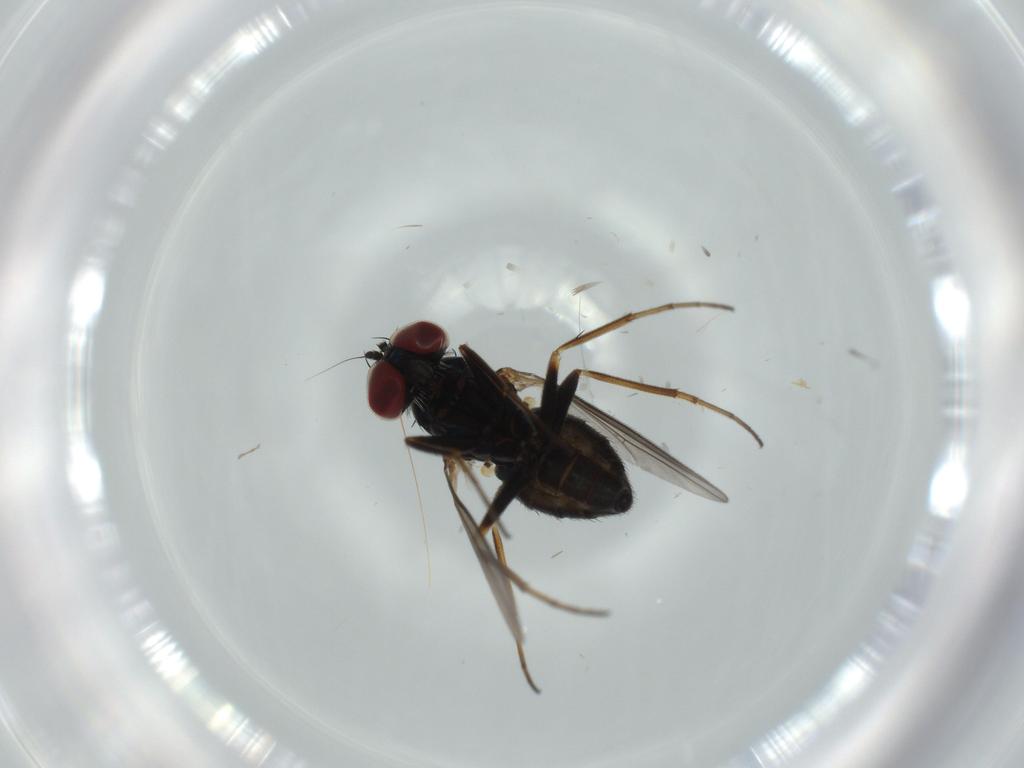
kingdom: Animalia
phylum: Arthropoda
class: Insecta
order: Diptera
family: Dolichopodidae
